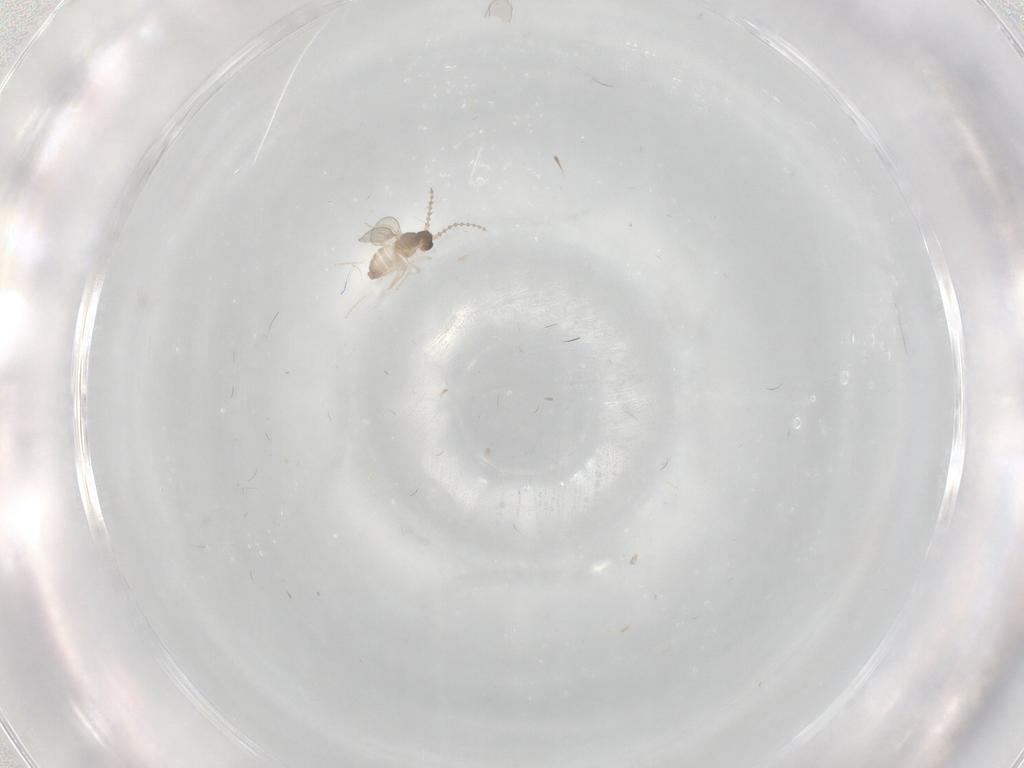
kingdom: Animalia
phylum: Arthropoda
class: Insecta
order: Diptera
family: Cecidomyiidae
